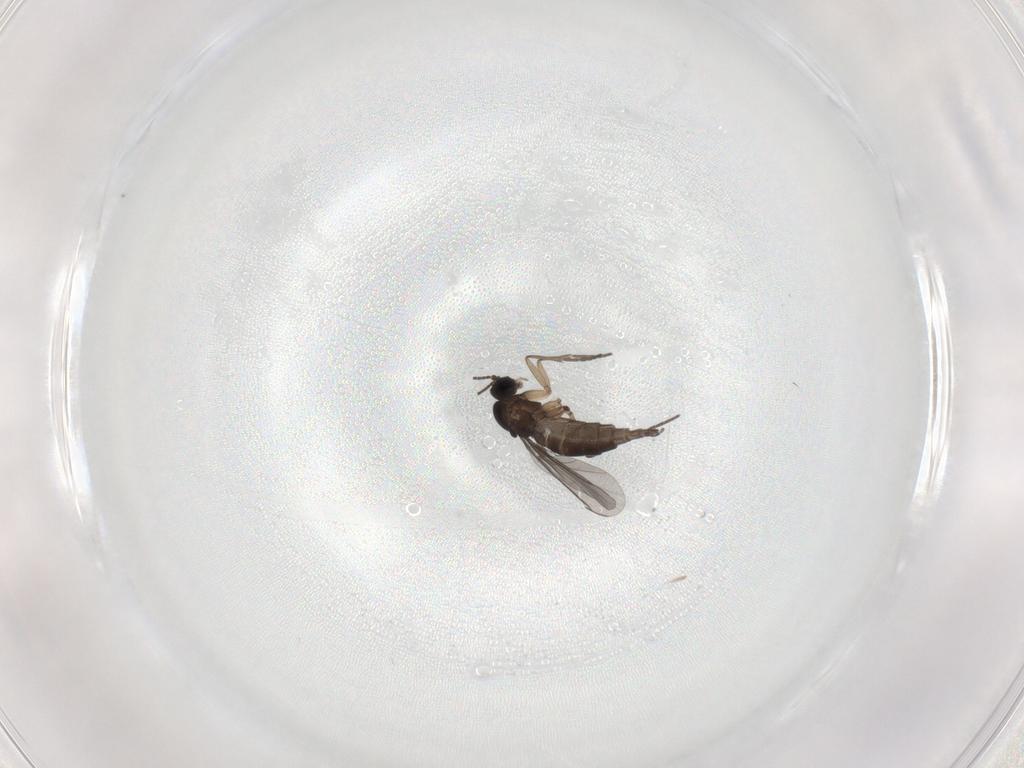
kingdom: Animalia
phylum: Arthropoda
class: Insecta
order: Diptera
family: Sciaridae
